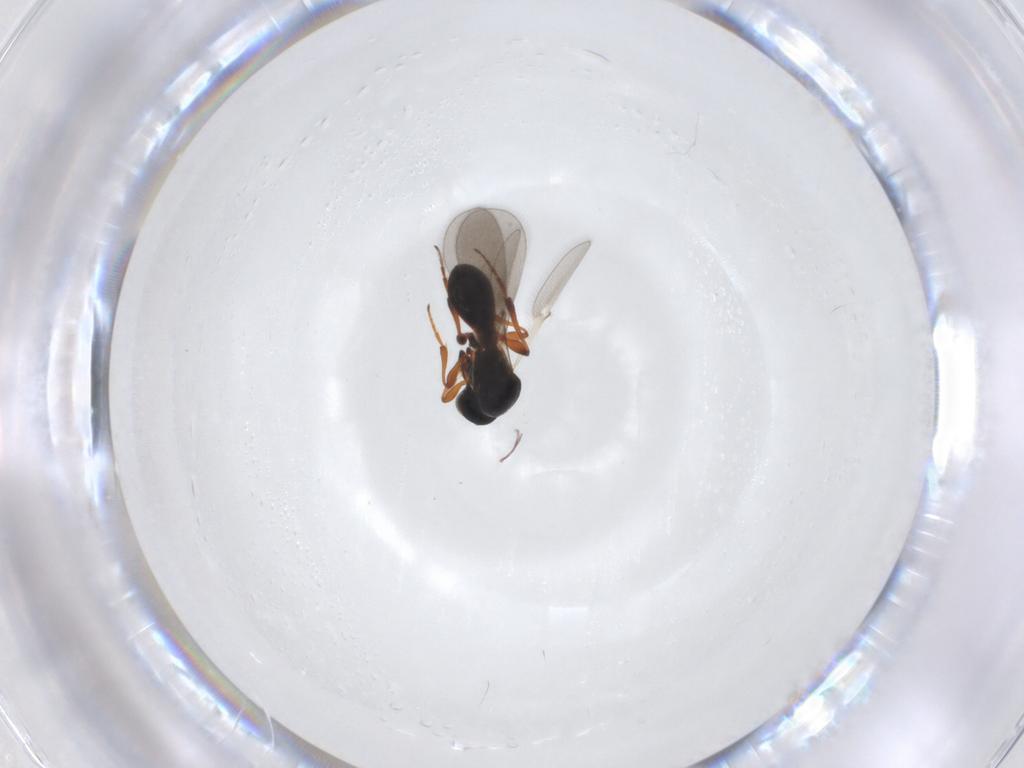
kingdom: Animalia
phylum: Arthropoda
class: Insecta
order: Hymenoptera
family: Platygastridae
